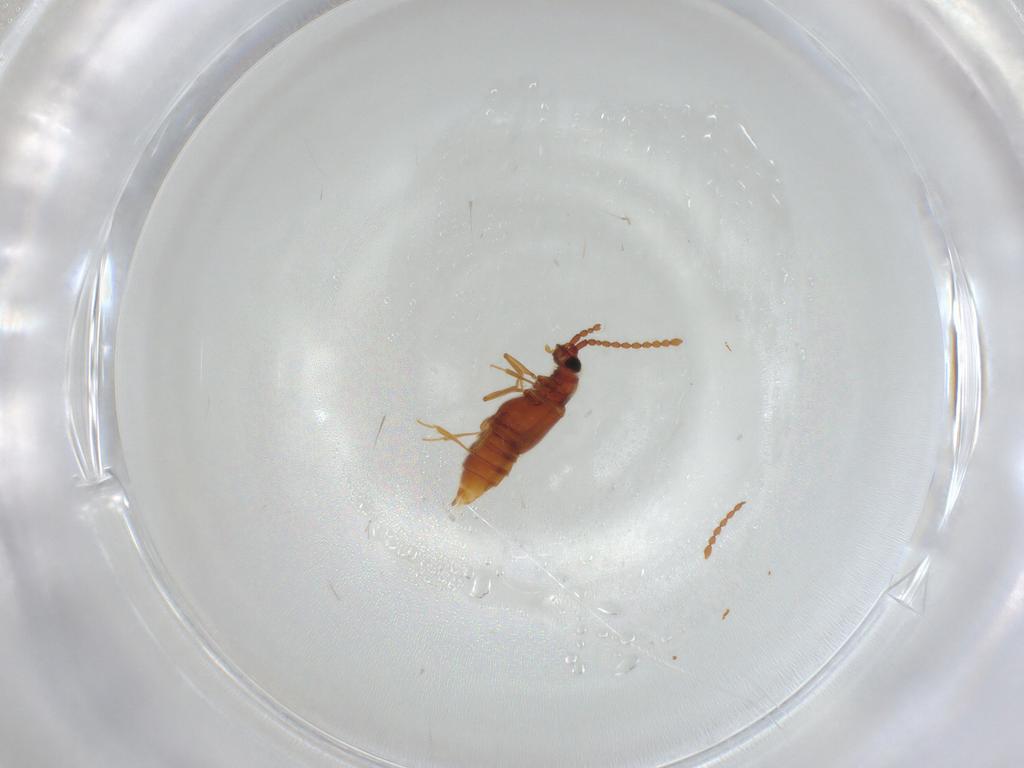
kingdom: Animalia
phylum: Arthropoda
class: Insecta
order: Coleoptera
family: Staphylinidae
